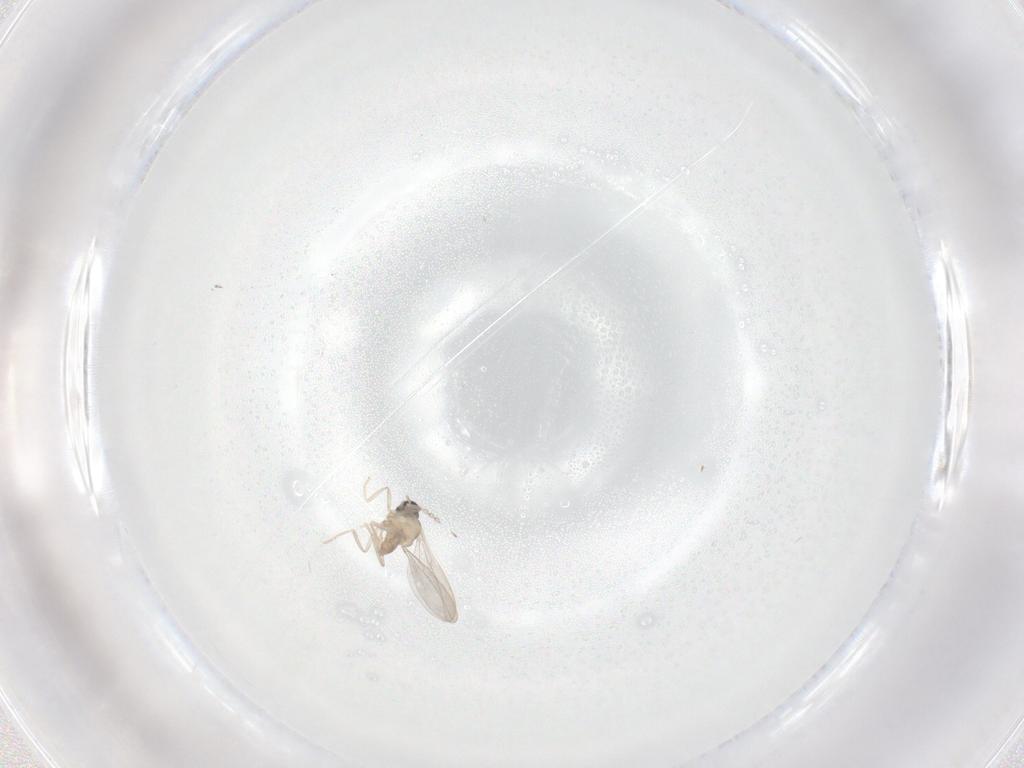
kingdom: Animalia
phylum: Arthropoda
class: Insecta
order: Diptera
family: Cecidomyiidae
